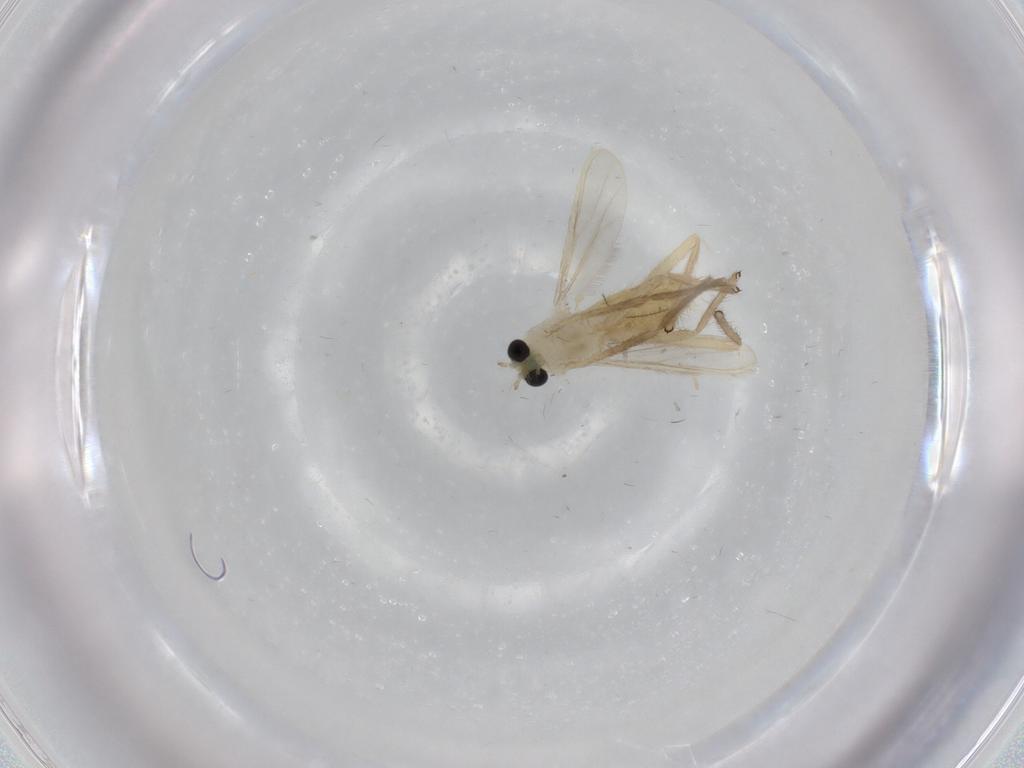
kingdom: Animalia
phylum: Arthropoda
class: Insecta
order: Diptera
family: Chironomidae
